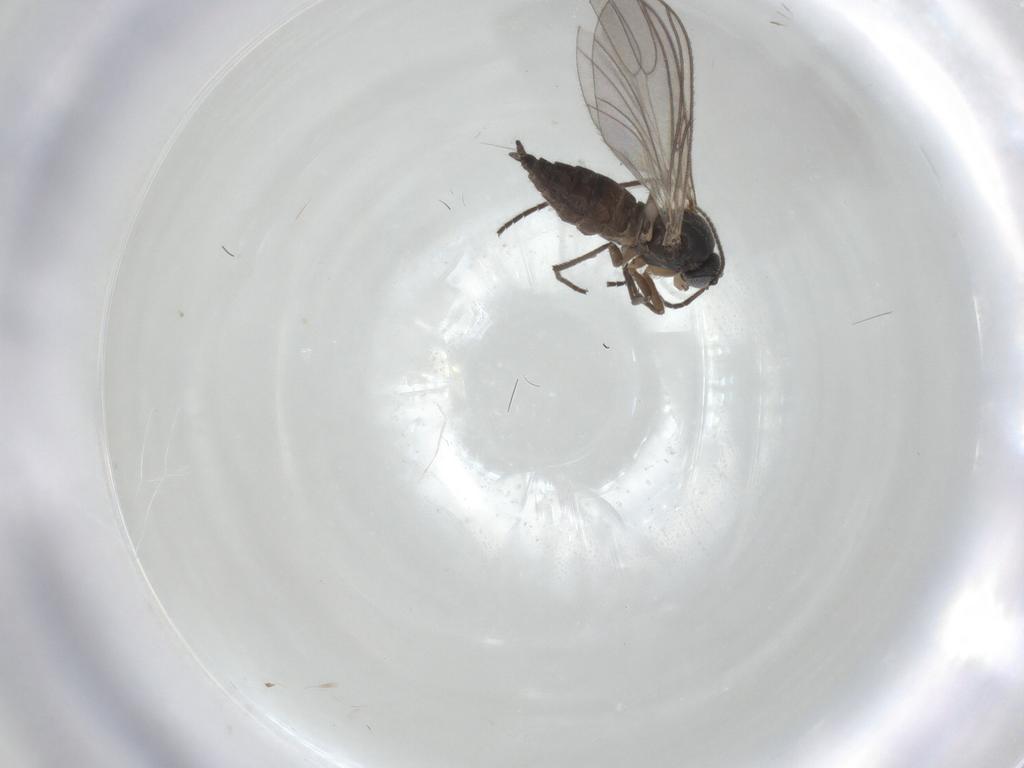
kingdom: Animalia
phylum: Arthropoda
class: Insecta
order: Diptera
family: Sciaridae
